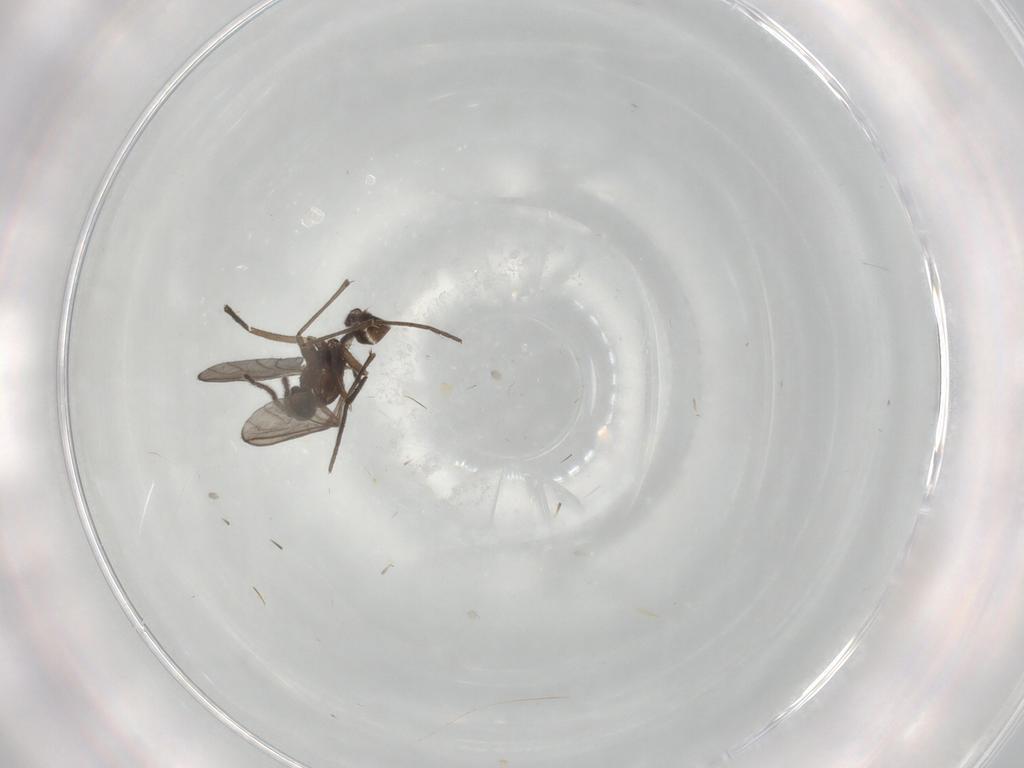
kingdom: Animalia
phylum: Arthropoda
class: Insecta
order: Diptera
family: Sciaridae
